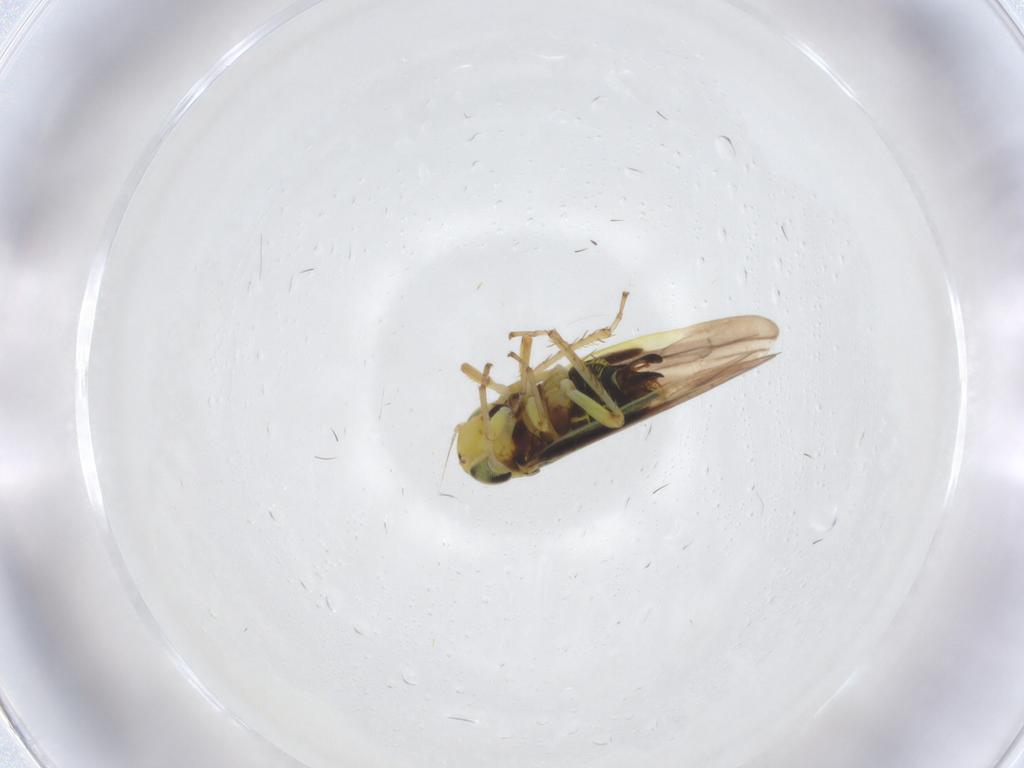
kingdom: Animalia
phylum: Arthropoda
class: Insecta
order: Hemiptera
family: Cicadellidae
